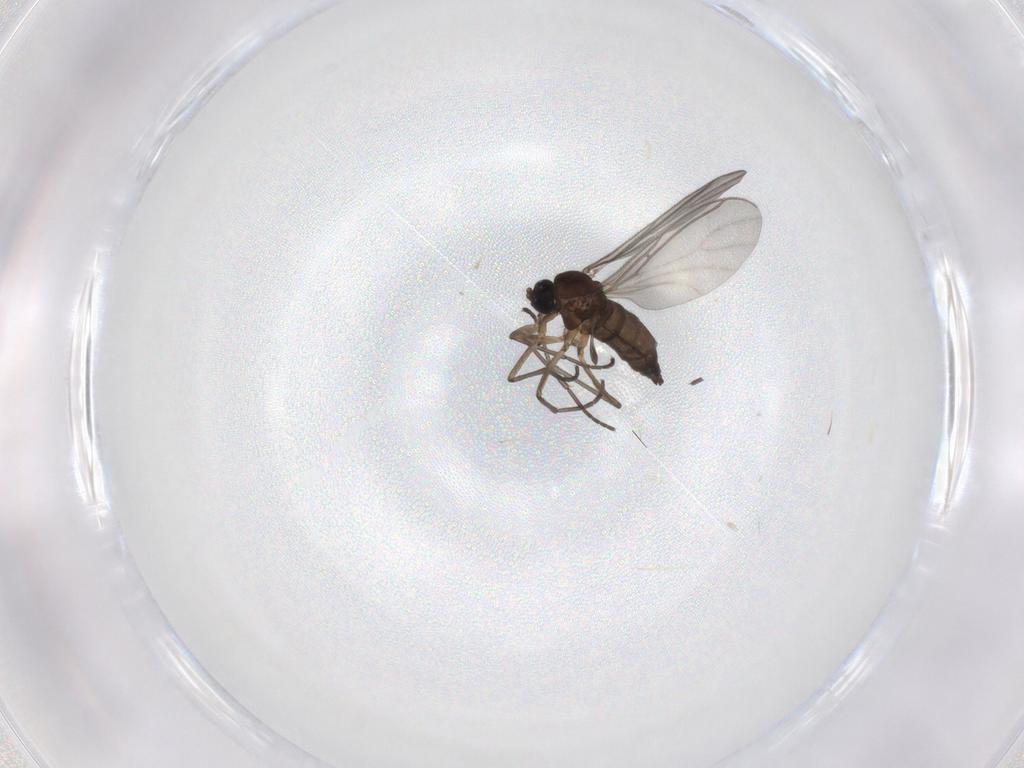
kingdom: Animalia
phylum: Arthropoda
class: Insecta
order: Diptera
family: Sciaridae
